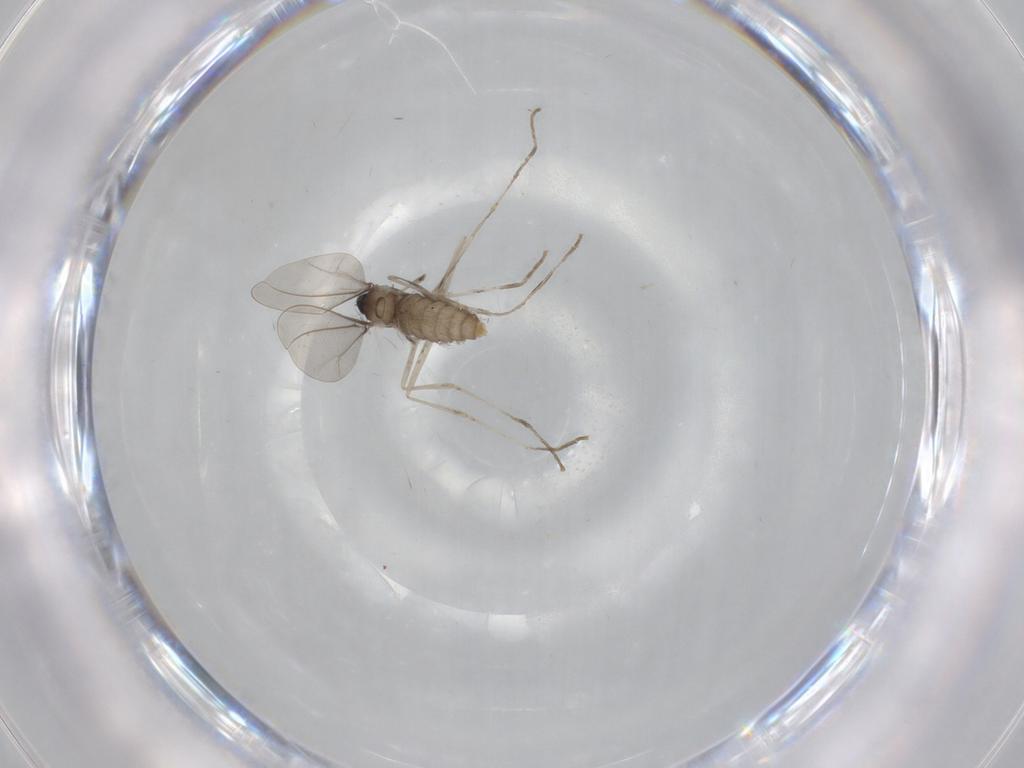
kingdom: Animalia
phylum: Arthropoda
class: Insecta
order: Diptera
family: Cecidomyiidae
